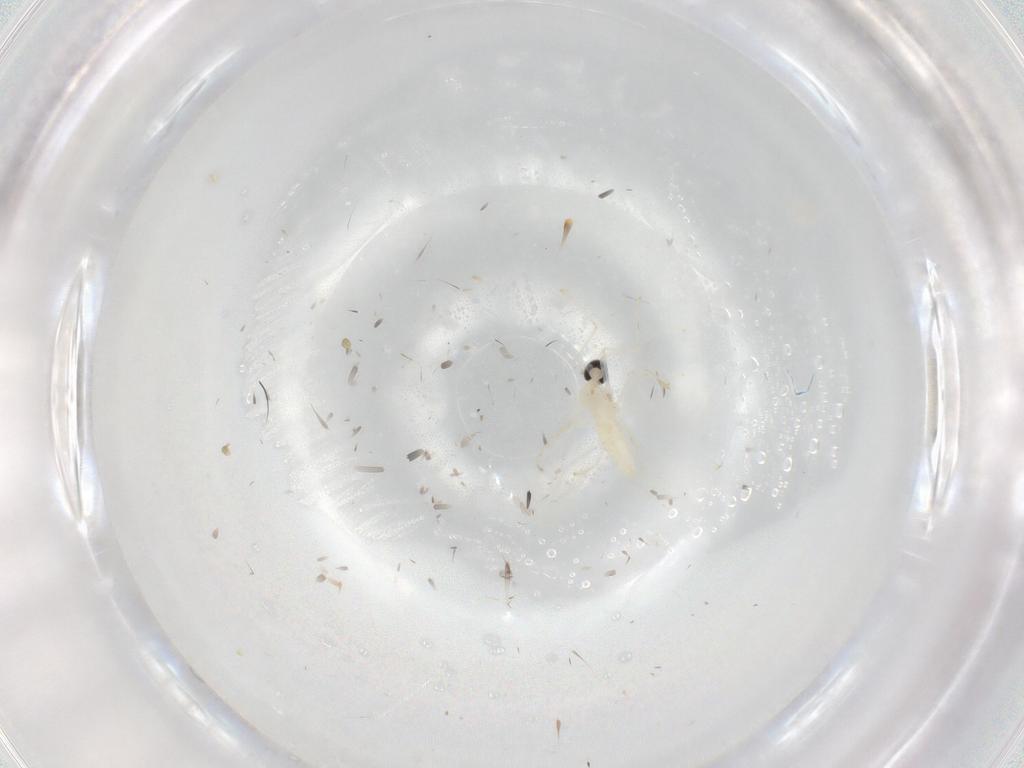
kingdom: Animalia
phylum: Arthropoda
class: Insecta
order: Diptera
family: Cecidomyiidae
